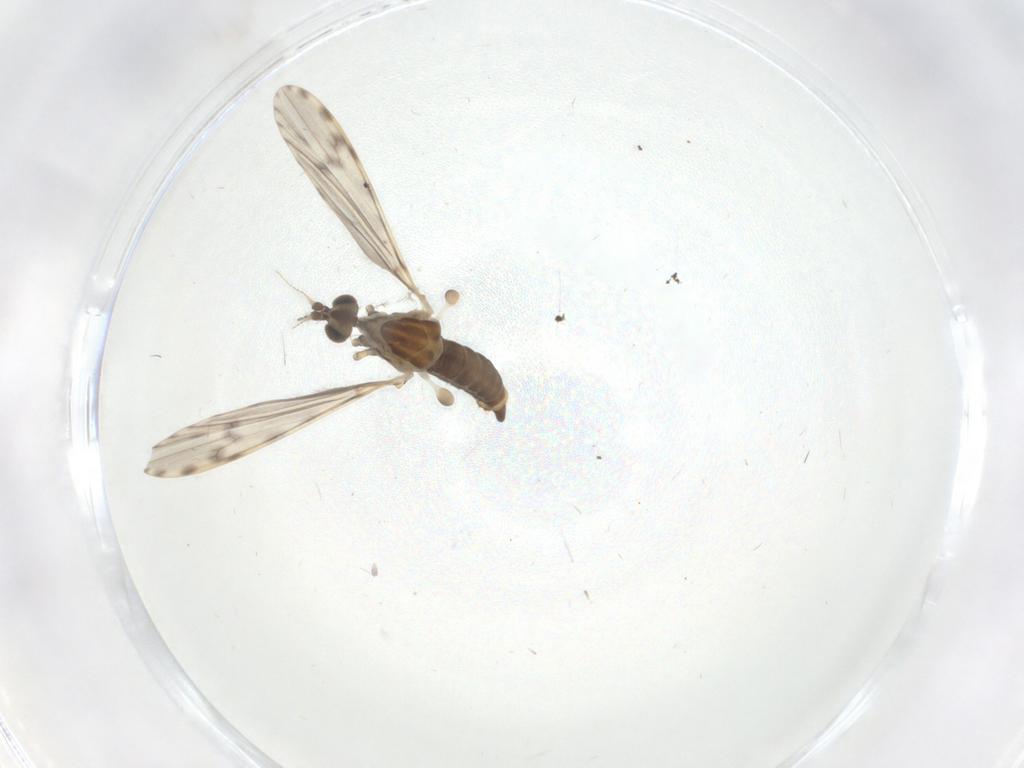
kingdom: Animalia
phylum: Arthropoda
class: Insecta
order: Diptera
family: Limoniidae
